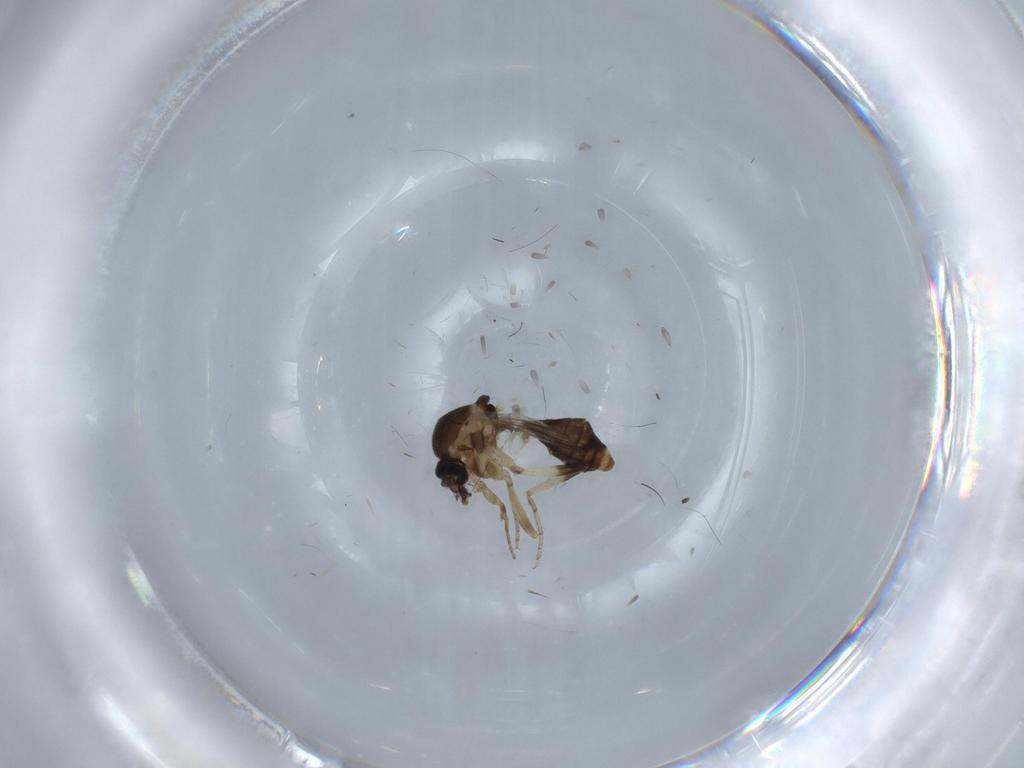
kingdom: Animalia
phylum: Arthropoda
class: Insecta
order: Diptera
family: Ceratopogonidae
